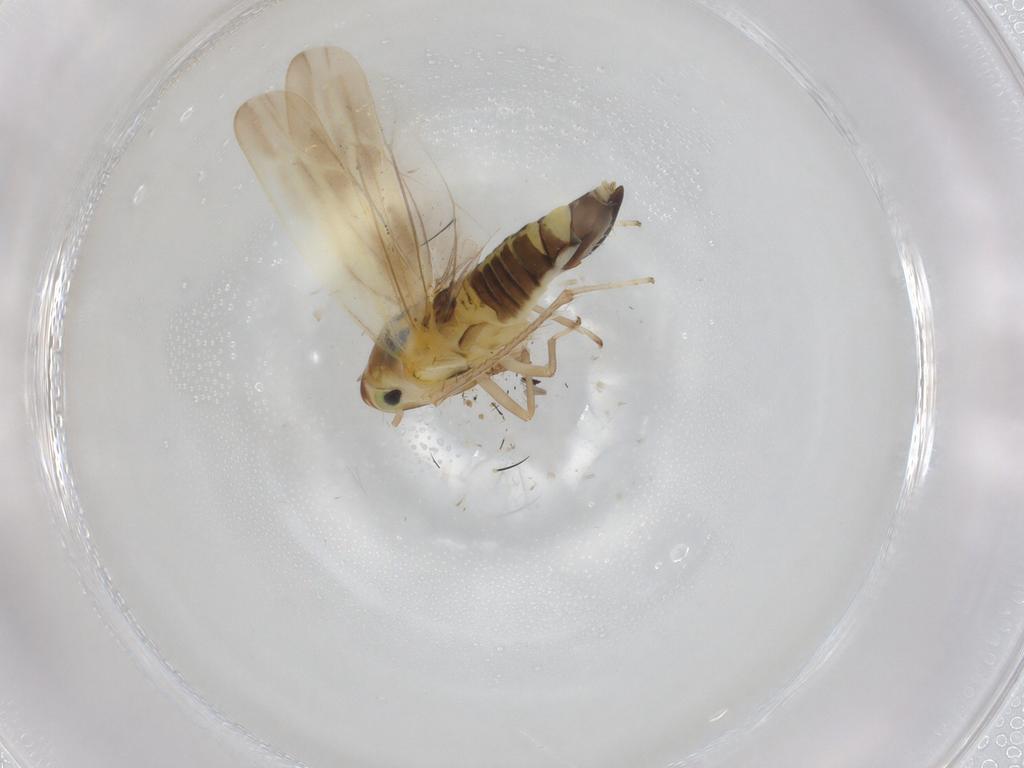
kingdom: Animalia
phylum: Arthropoda
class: Insecta
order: Hemiptera
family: Cicadellidae
